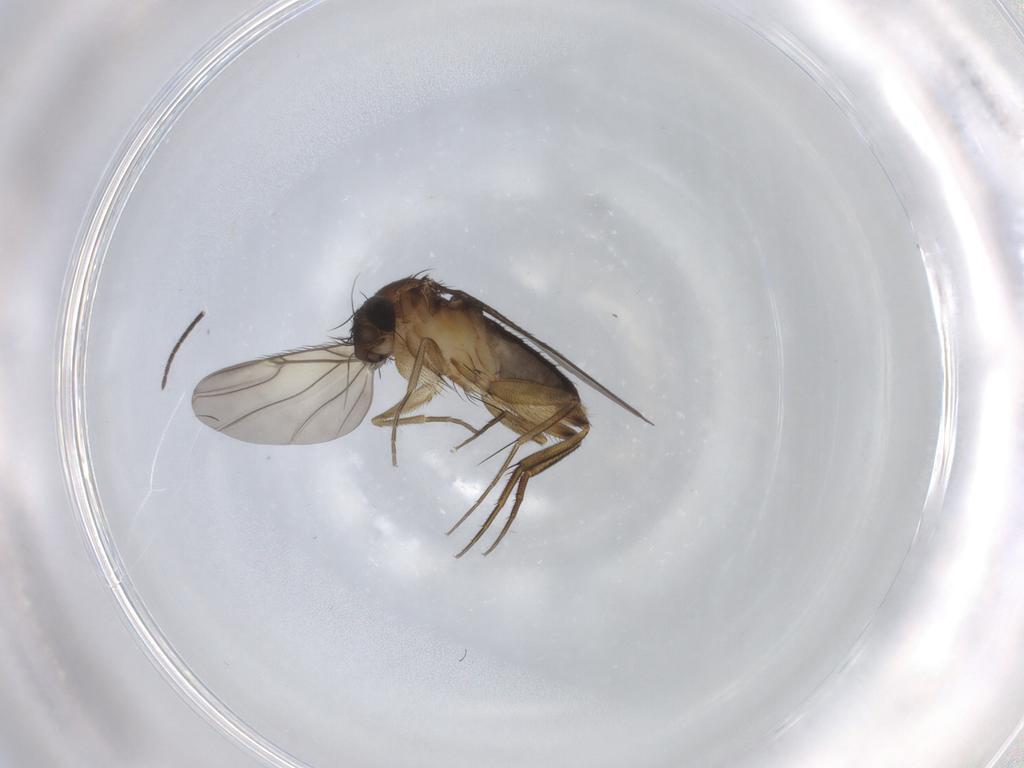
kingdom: Animalia
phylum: Arthropoda
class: Insecta
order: Diptera
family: Phoridae
